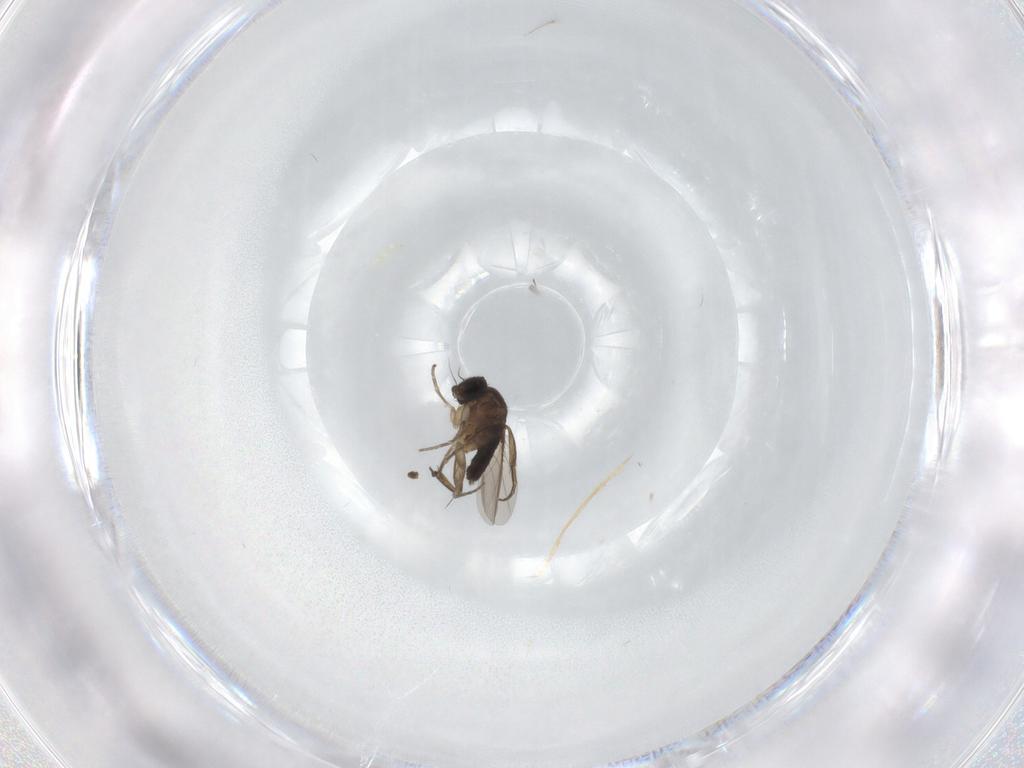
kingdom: Animalia
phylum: Arthropoda
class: Insecta
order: Diptera
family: Phoridae
